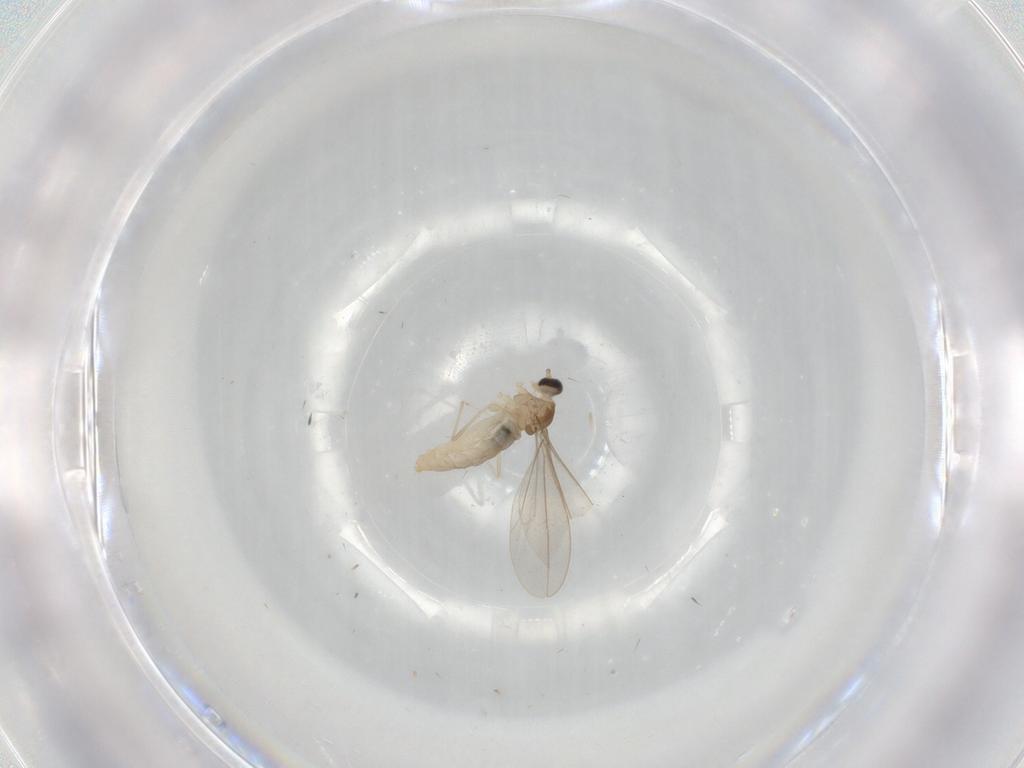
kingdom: Animalia
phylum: Arthropoda
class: Insecta
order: Diptera
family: Cecidomyiidae
